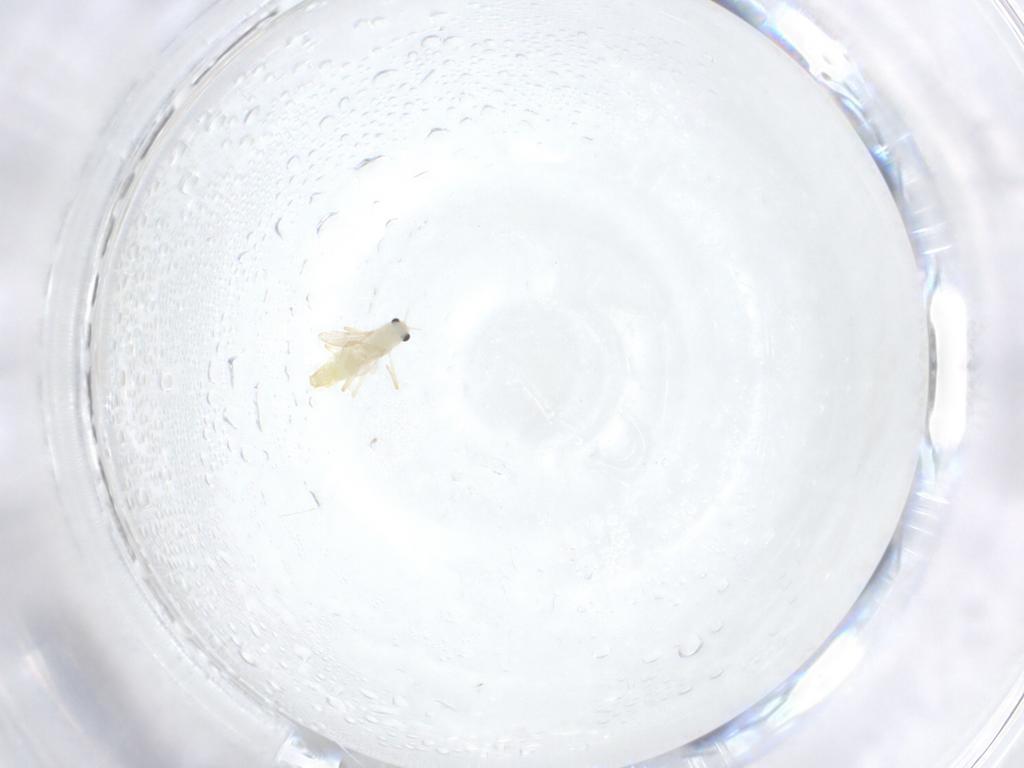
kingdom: Animalia
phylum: Arthropoda
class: Insecta
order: Diptera
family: Chironomidae
